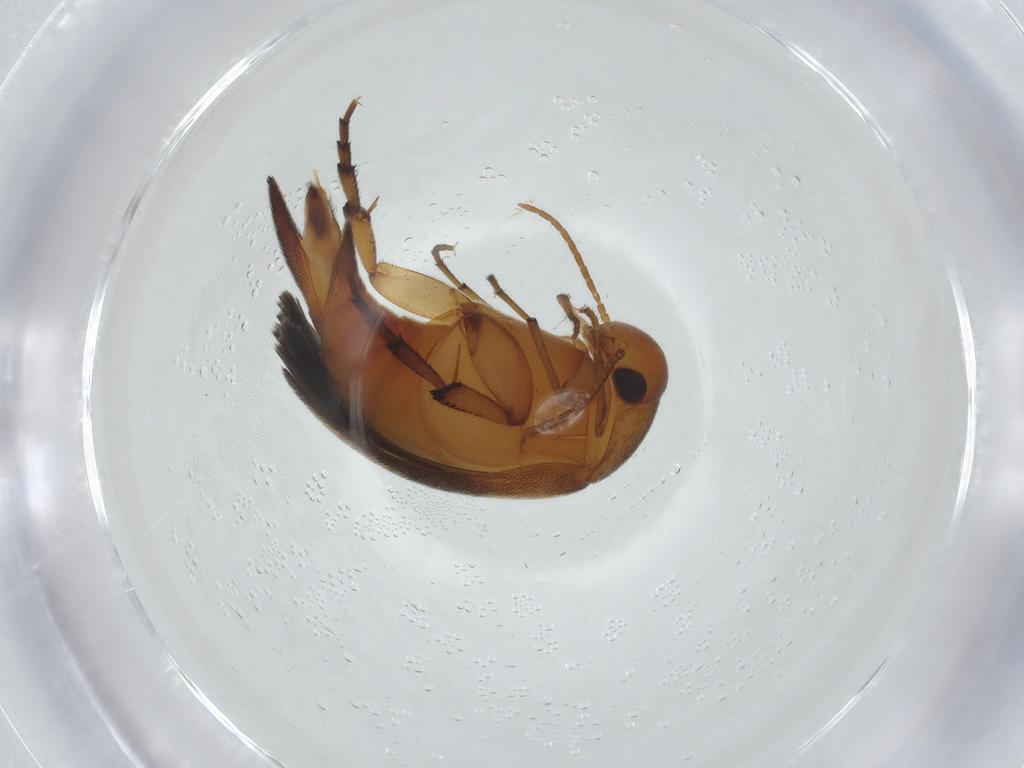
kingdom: Animalia
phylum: Arthropoda
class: Insecta
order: Coleoptera
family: Mordellidae
